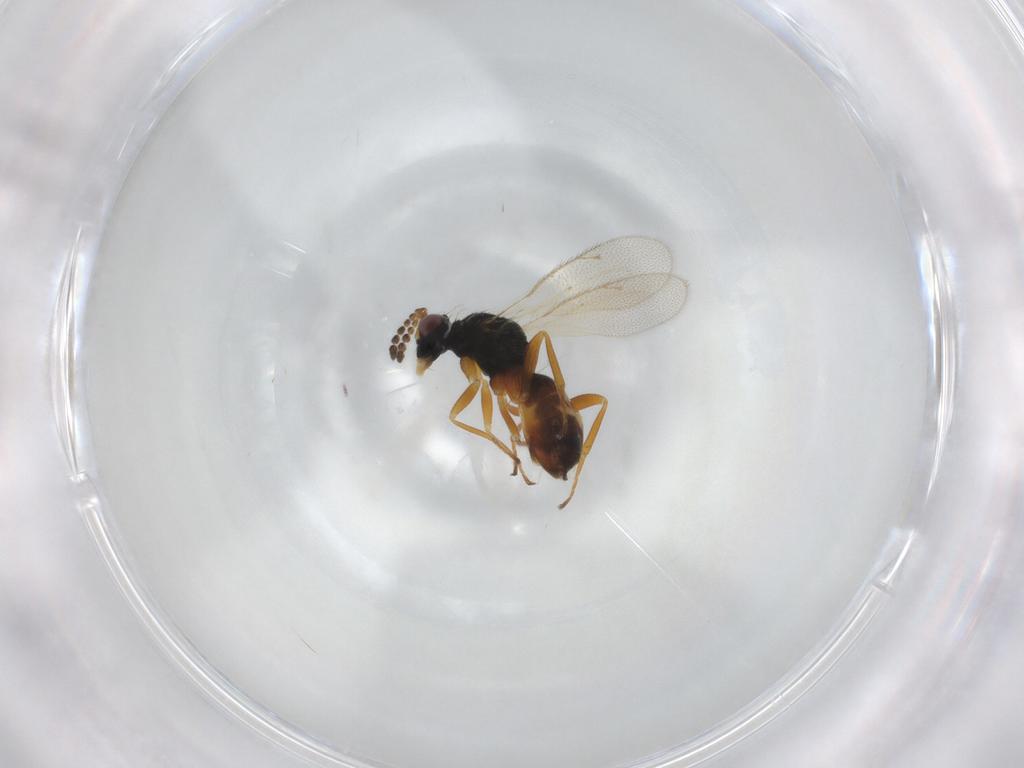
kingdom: Animalia
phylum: Arthropoda
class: Insecta
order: Hymenoptera
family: Eulophidae
